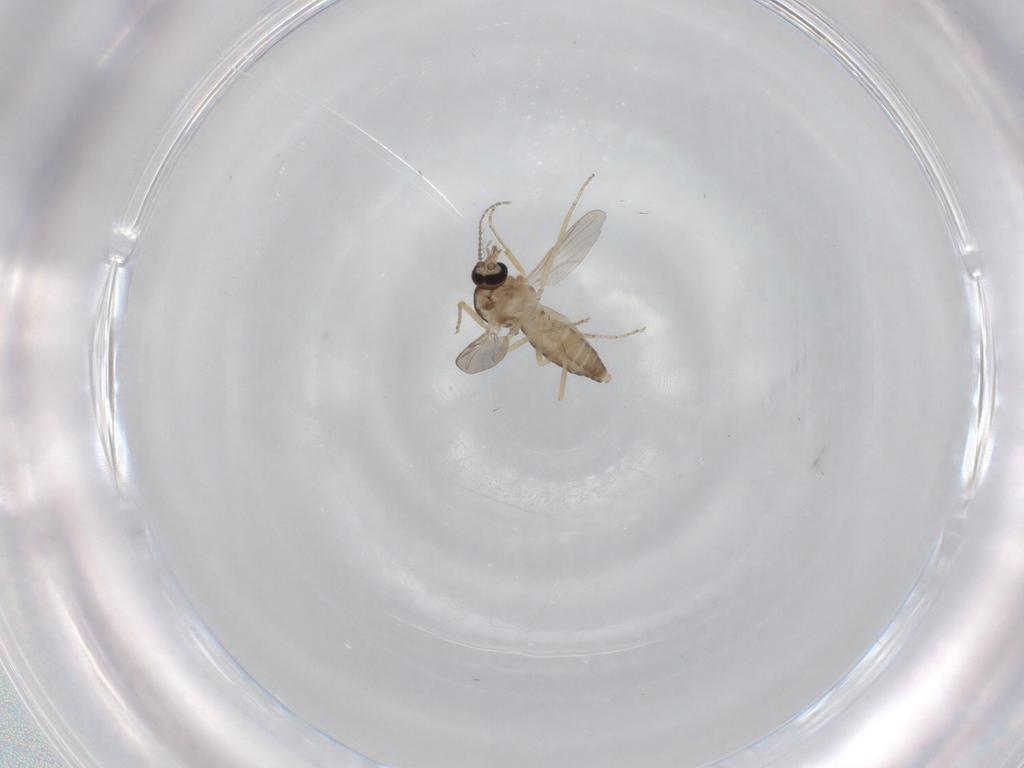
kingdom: Animalia
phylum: Arthropoda
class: Insecta
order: Diptera
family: Ceratopogonidae
